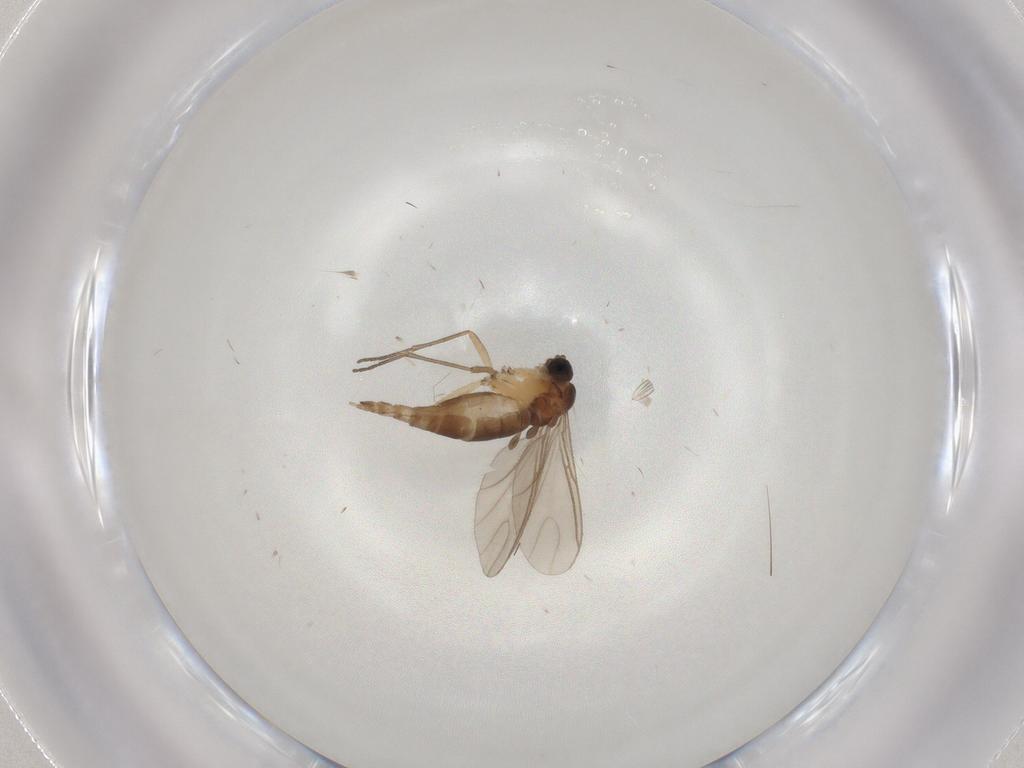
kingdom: Animalia
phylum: Arthropoda
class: Insecta
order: Diptera
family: Sciaridae
